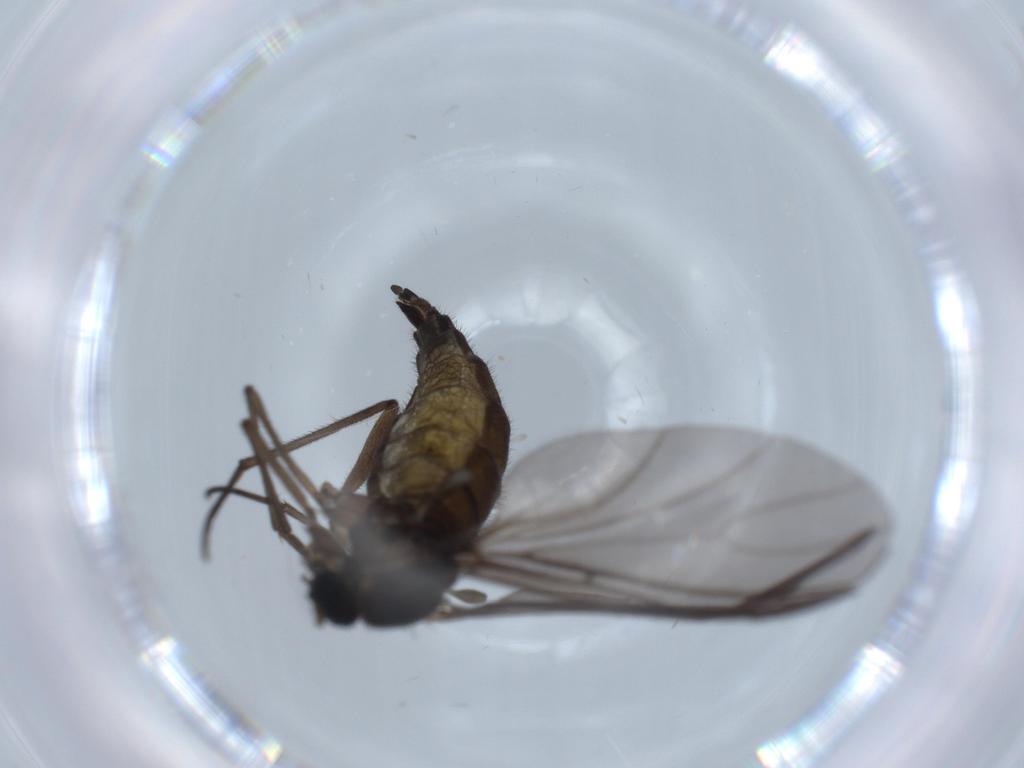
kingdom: Animalia
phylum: Arthropoda
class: Insecta
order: Diptera
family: Sciaridae
